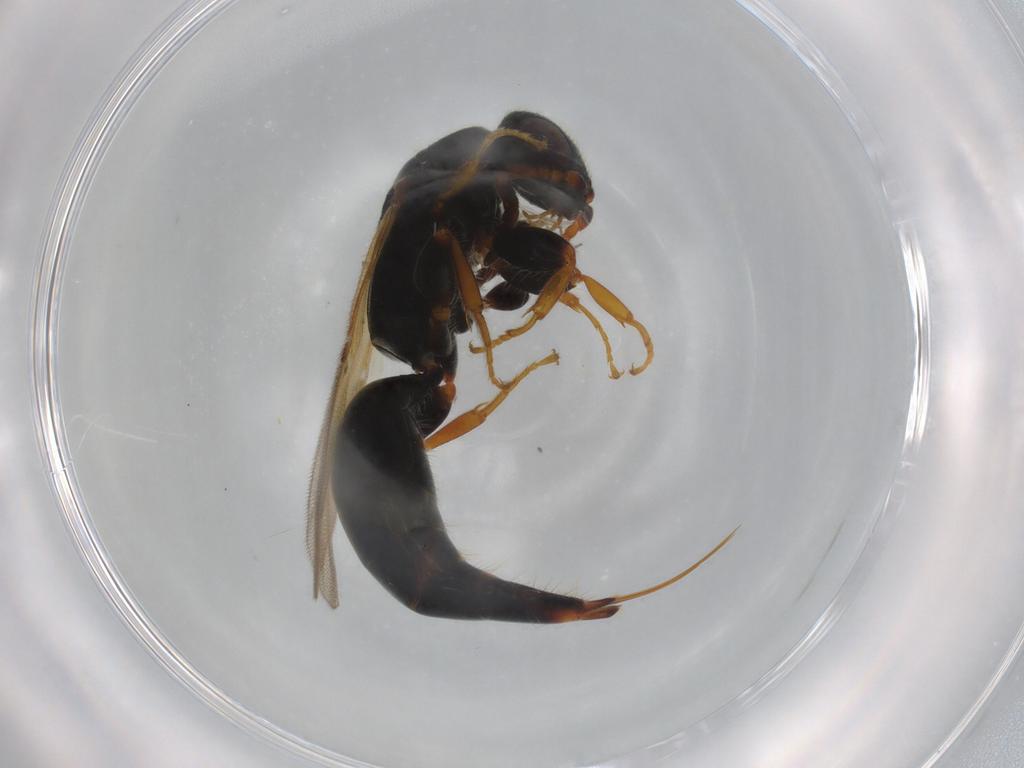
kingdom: Animalia
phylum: Arthropoda
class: Insecta
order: Hymenoptera
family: Bethylidae
